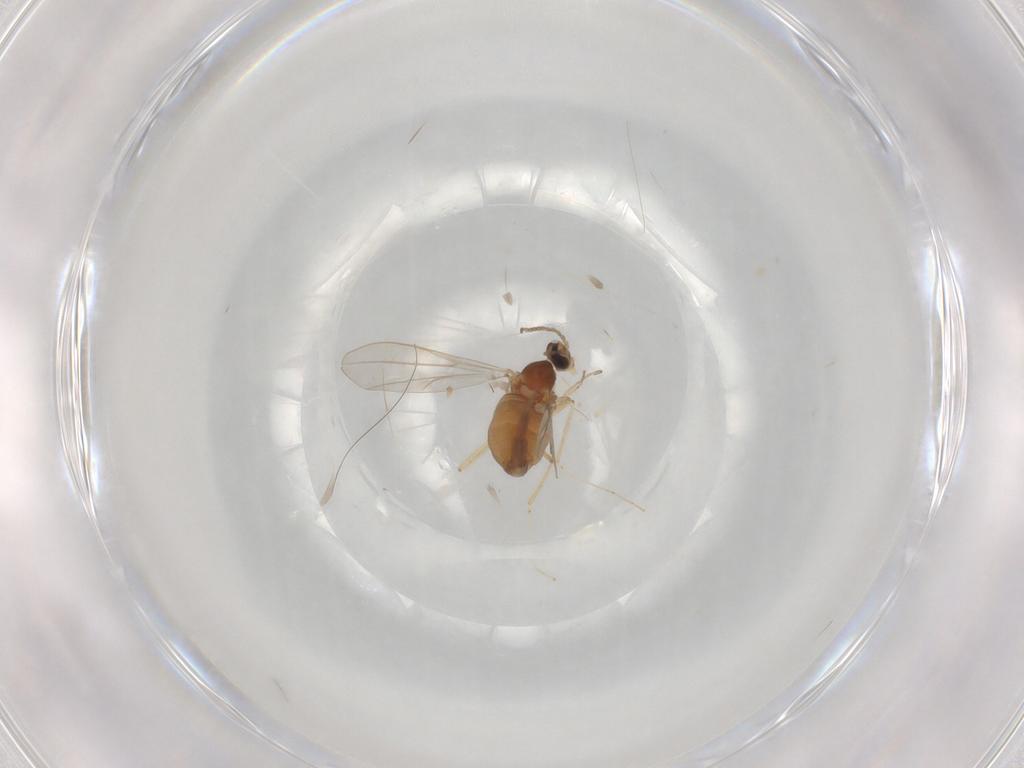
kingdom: Animalia
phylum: Arthropoda
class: Insecta
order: Diptera
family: Cecidomyiidae
